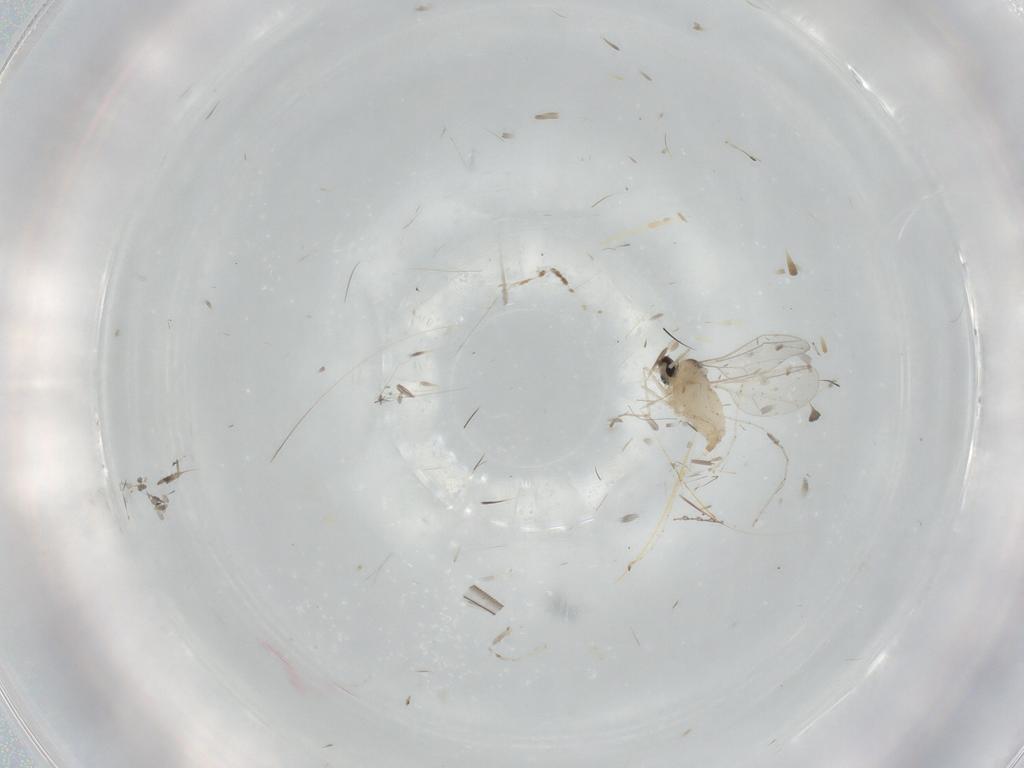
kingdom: Animalia
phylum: Arthropoda
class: Insecta
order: Diptera
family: Cecidomyiidae
